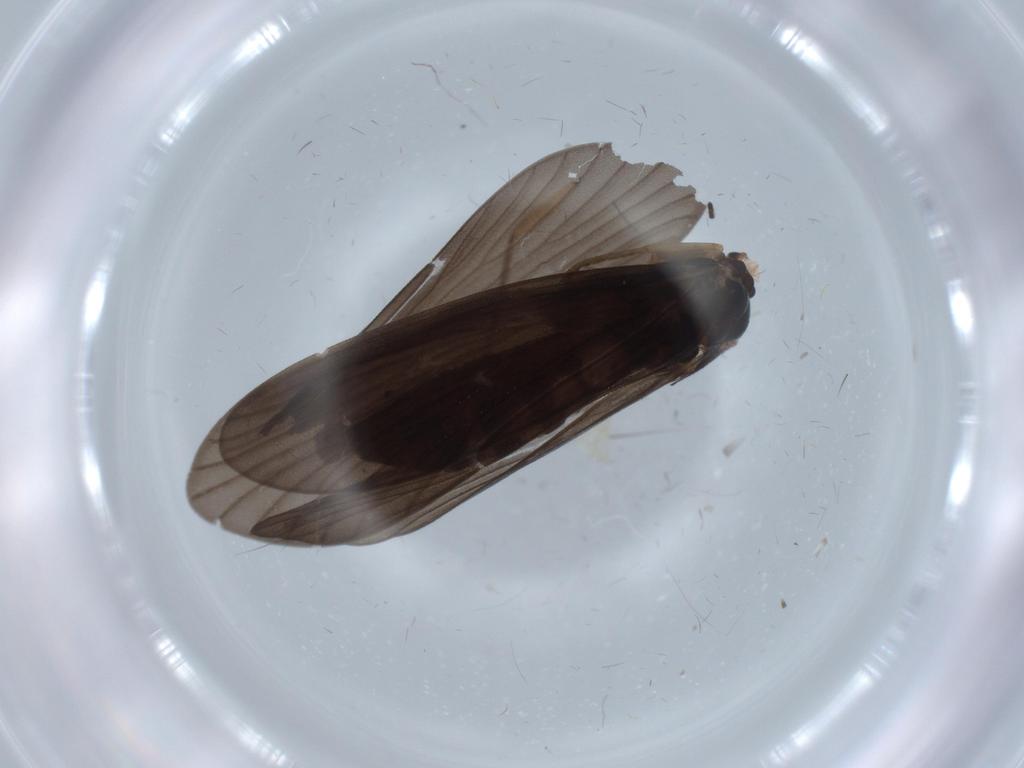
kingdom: Animalia
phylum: Arthropoda
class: Insecta
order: Trichoptera
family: Ptilocolepidae
